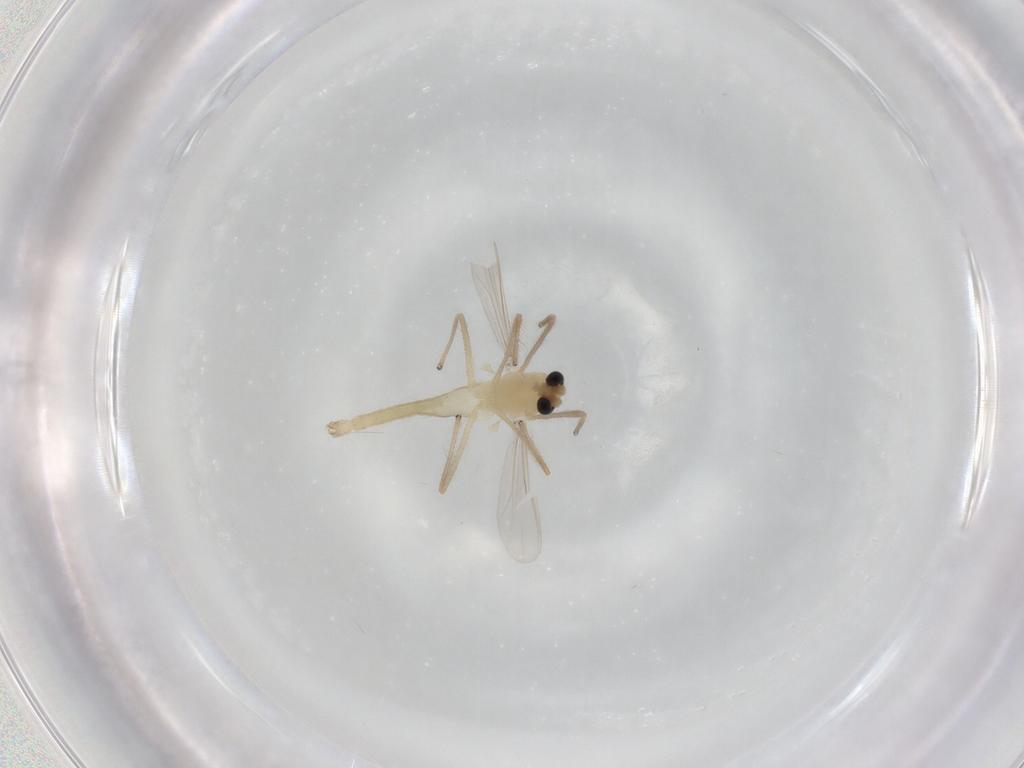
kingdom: Animalia
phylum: Arthropoda
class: Insecta
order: Diptera
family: Chironomidae
